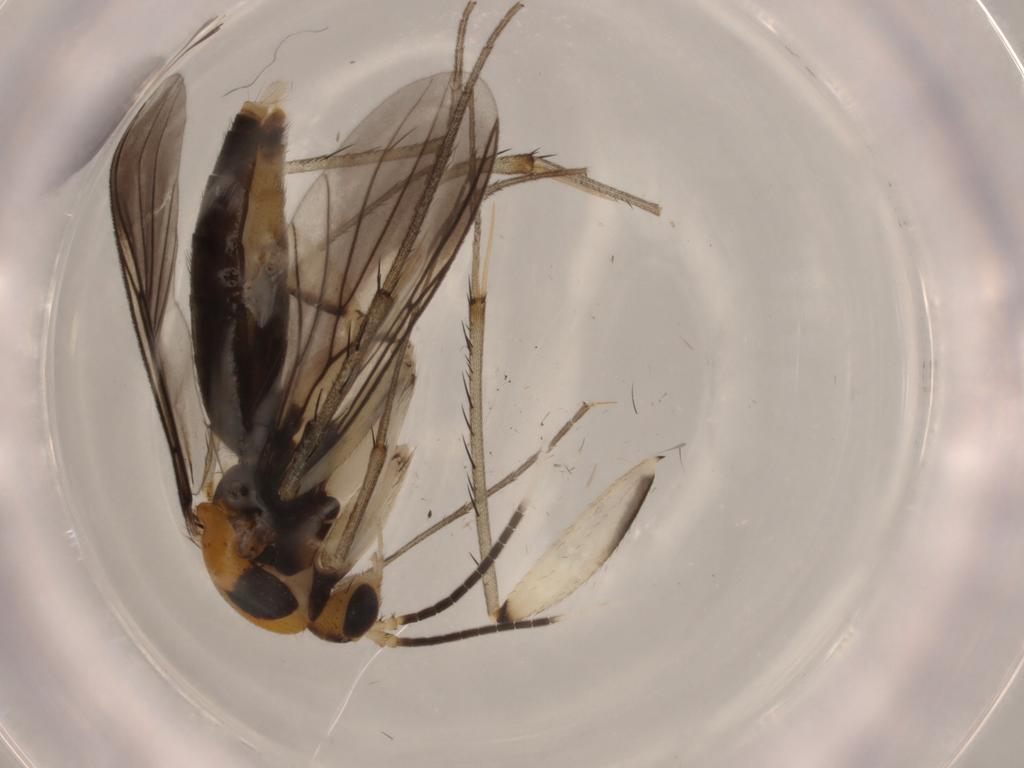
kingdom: Animalia
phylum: Arthropoda
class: Insecta
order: Diptera
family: Mycetophilidae
